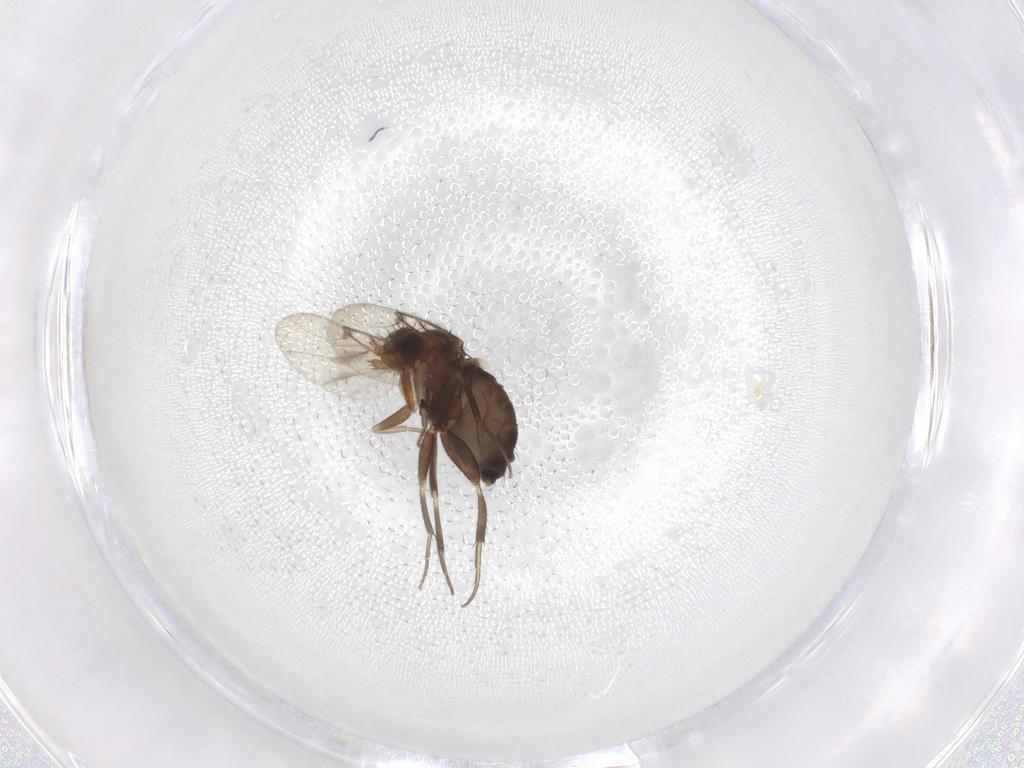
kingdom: Animalia
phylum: Arthropoda
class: Insecta
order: Diptera
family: Phoridae
